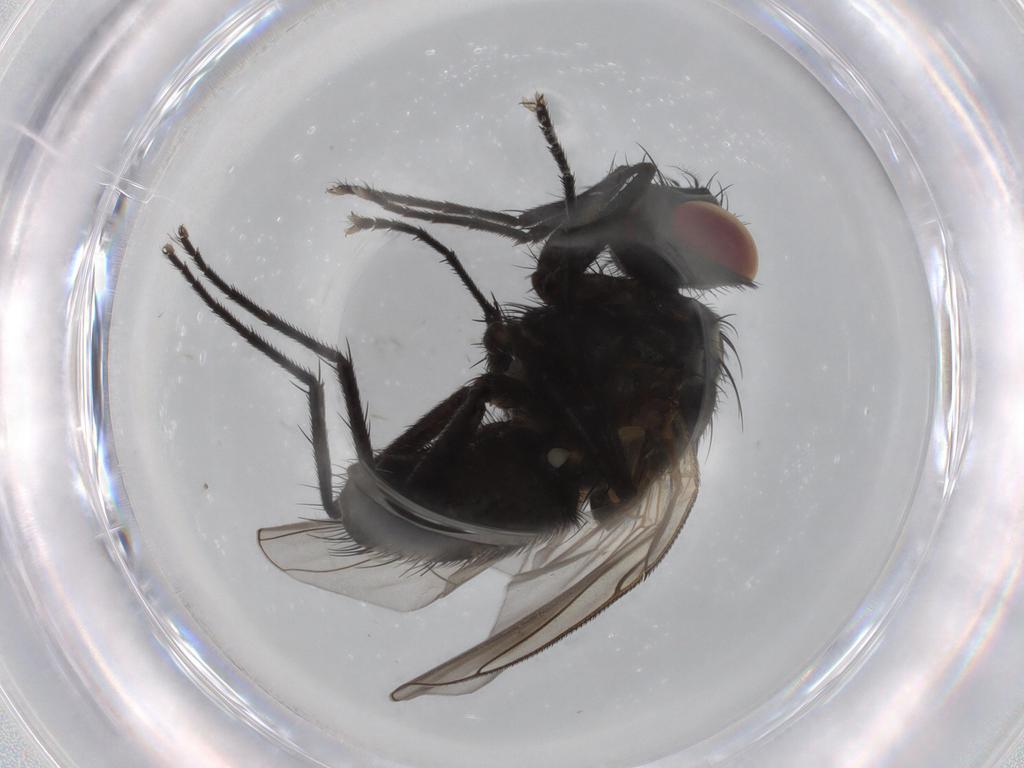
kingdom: Animalia
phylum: Arthropoda
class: Insecta
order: Diptera
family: Muscidae
